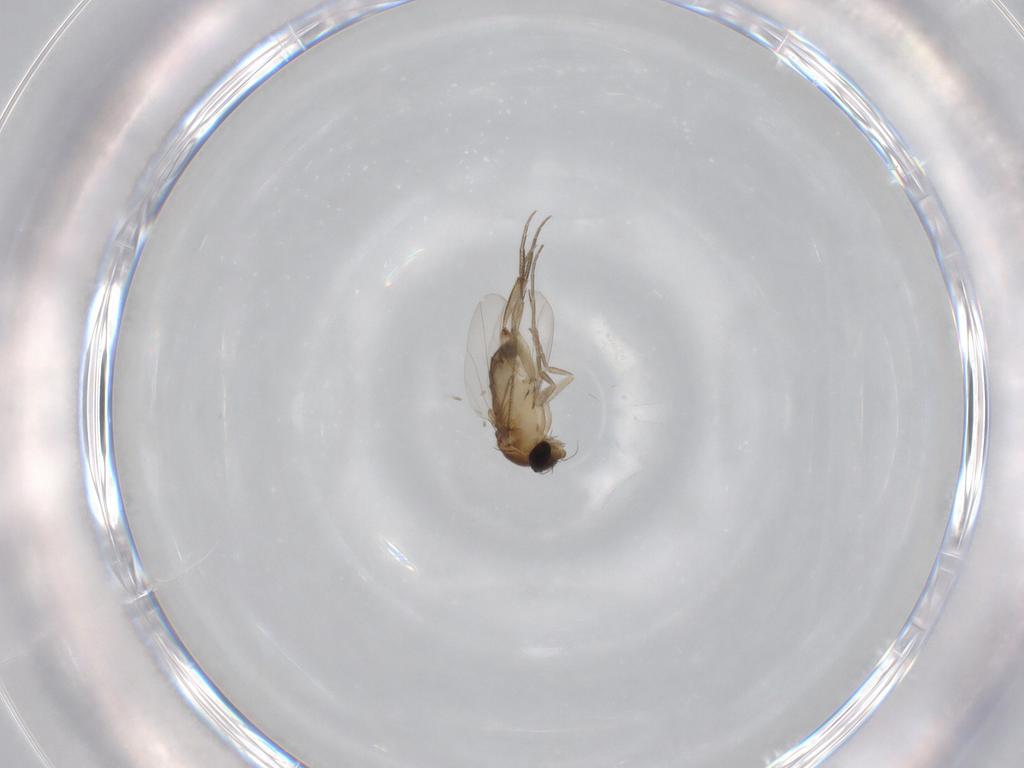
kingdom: Animalia
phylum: Arthropoda
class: Insecta
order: Diptera
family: Phoridae
